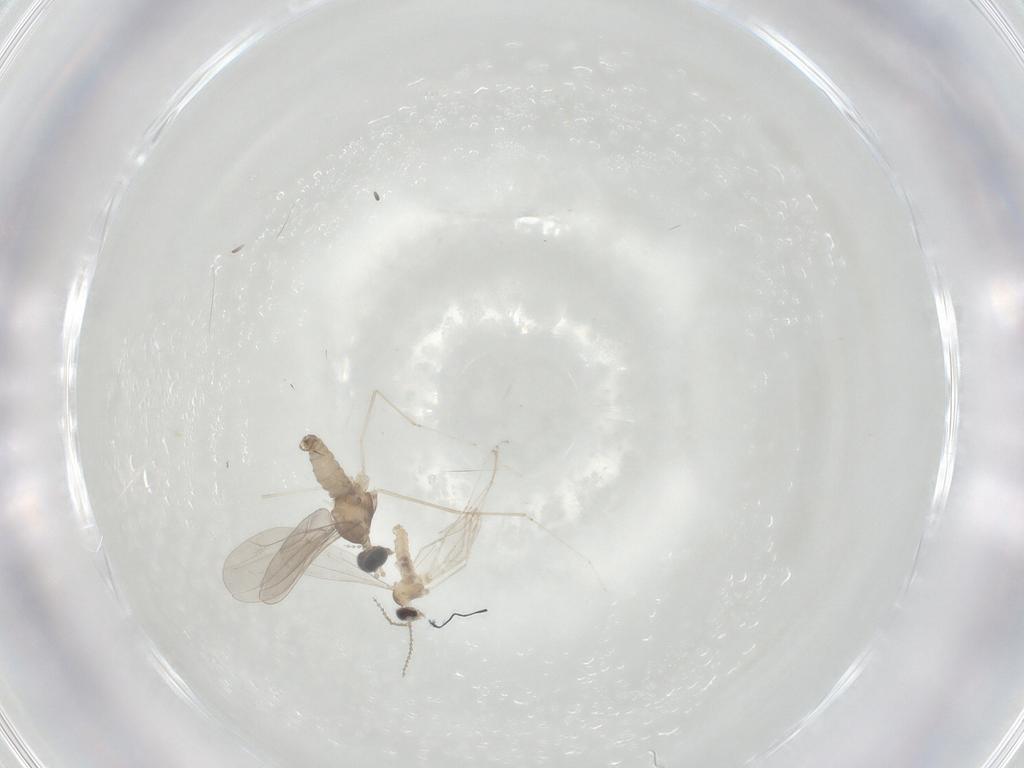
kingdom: Animalia
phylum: Arthropoda
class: Insecta
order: Diptera
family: Cecidomyiidae
